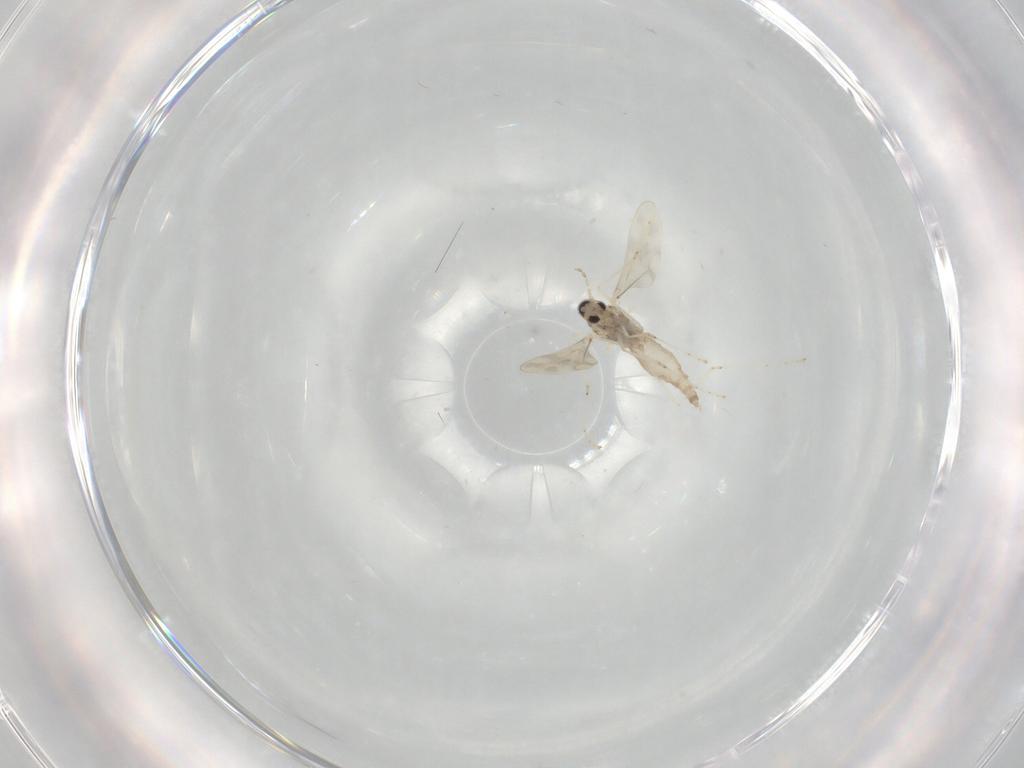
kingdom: Animalia
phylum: Arthropoda
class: Insecta
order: Diptera
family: Cecidomyiidae
